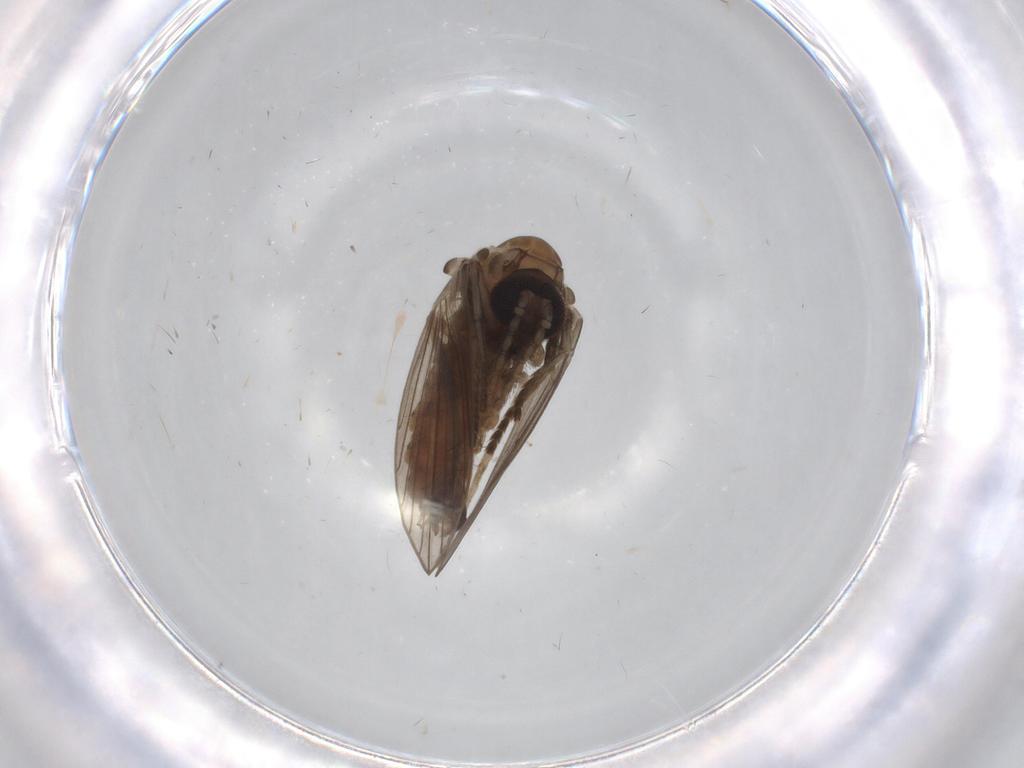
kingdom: Animalia
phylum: Arthropoda
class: Insecta
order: Diptera
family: Psychodidae
